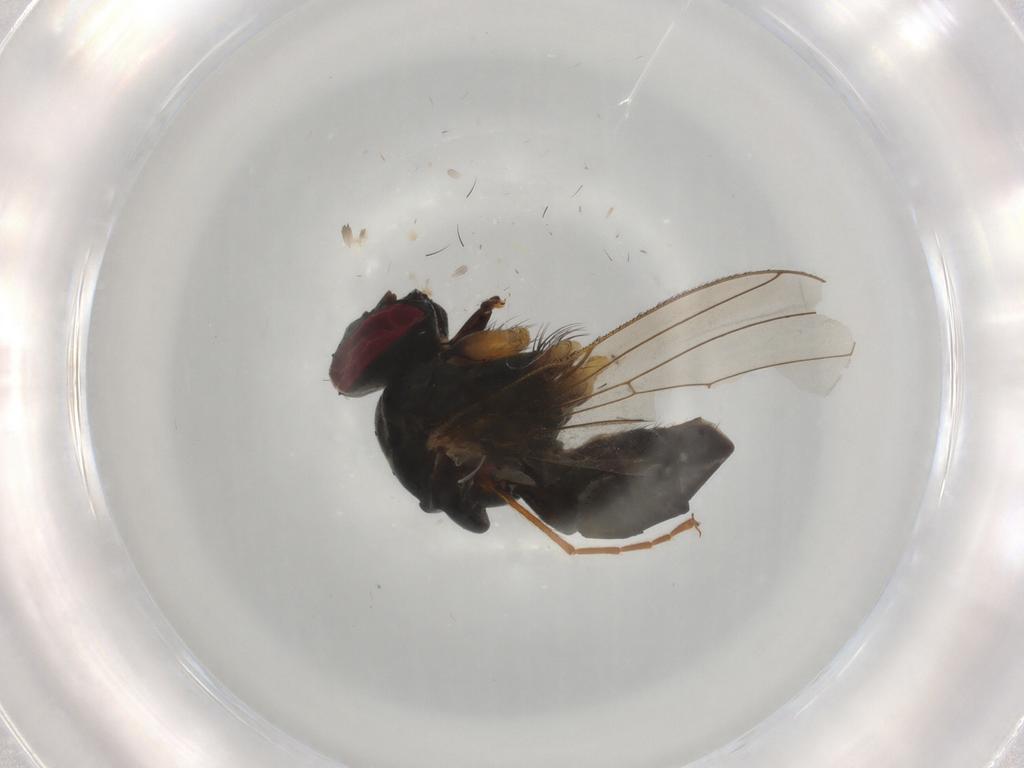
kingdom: Animalia
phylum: Arthropoda
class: Insecta
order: Diptera
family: Muscidae
